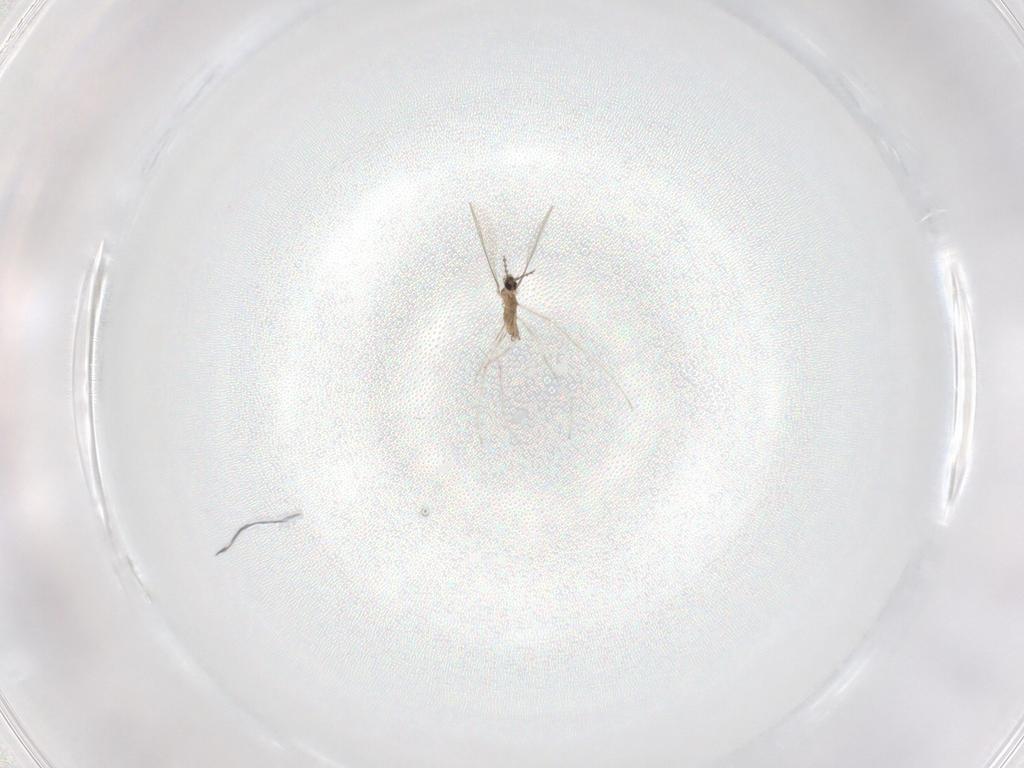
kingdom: Animalia
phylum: Arthropoda
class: Insecta
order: Diptera
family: Cecidomyiidae
